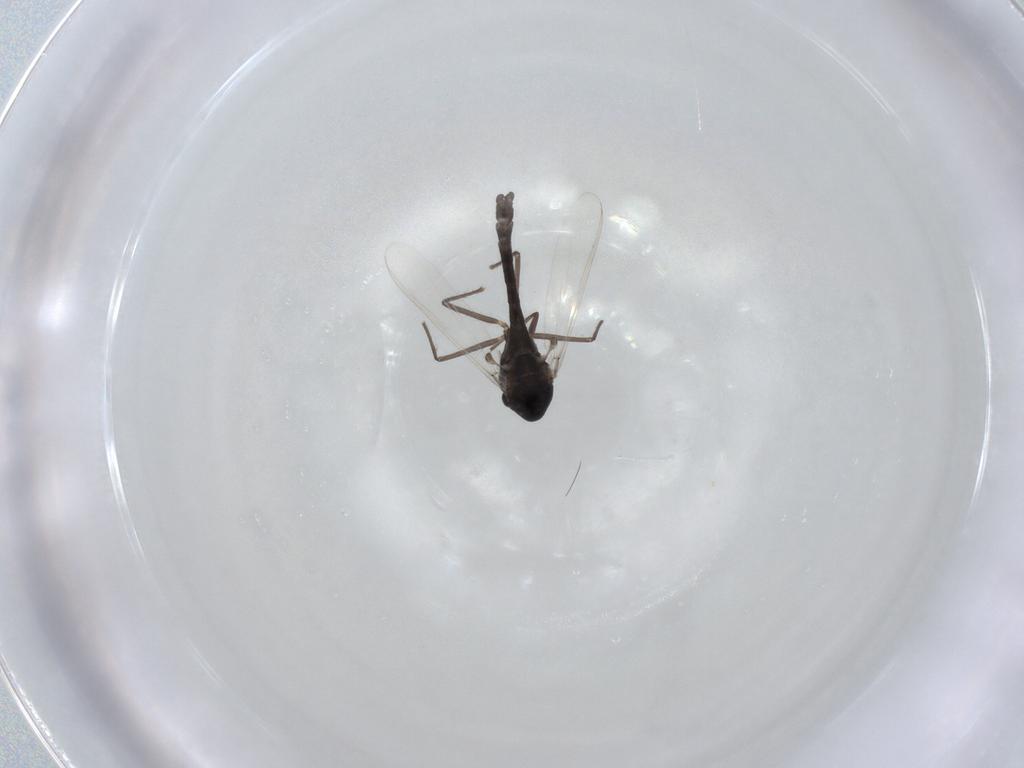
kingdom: Animalia
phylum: Arthropoda
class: Insecta
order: Diptera
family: Chironomidae
